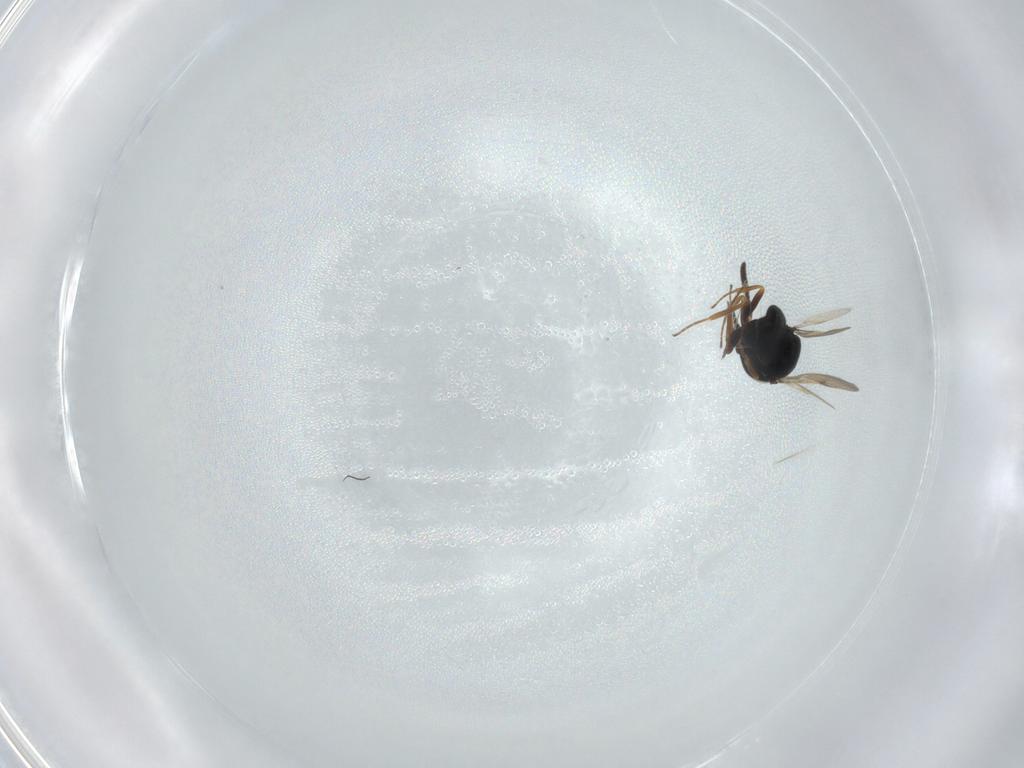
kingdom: Animalia
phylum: Arthropoda
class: Insecta
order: Hymenoptera
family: Scelionidae
